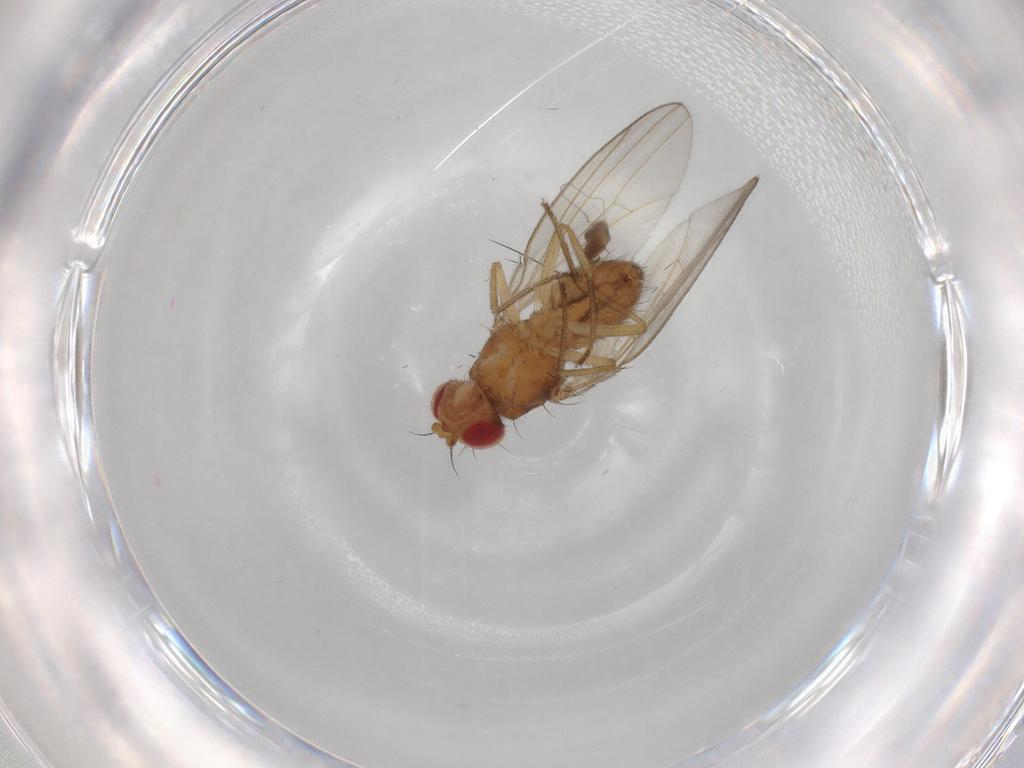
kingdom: Animalia
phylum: Arthropoda
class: Insecta
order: Diptera
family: Drosophilidae
